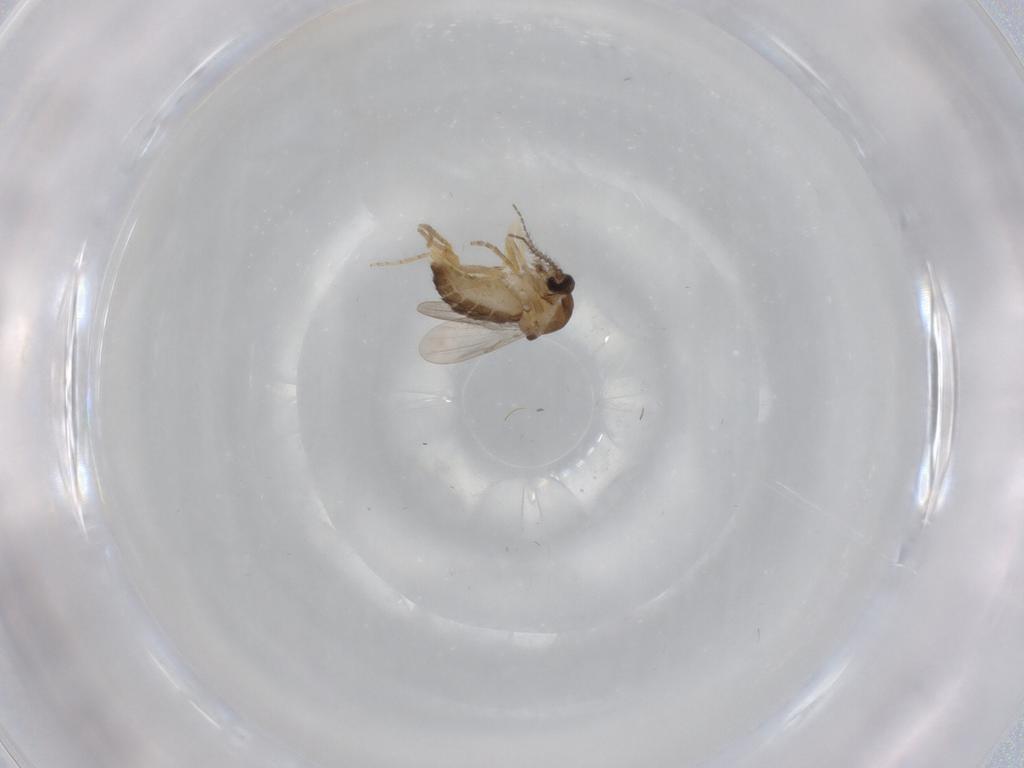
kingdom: Animalia
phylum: Arthropoda
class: Insecta
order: Diptera
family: Ceratopogonidae
